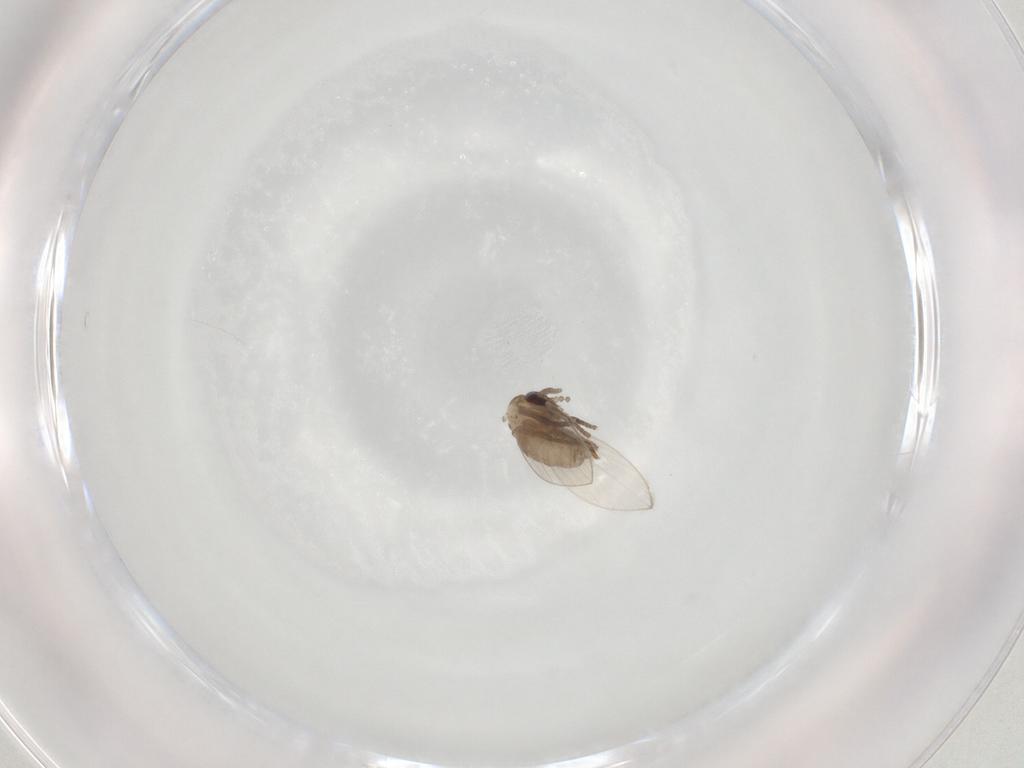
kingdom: Animalia
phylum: Arthropoda
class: Insecta
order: Diptera
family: Psychodidae
